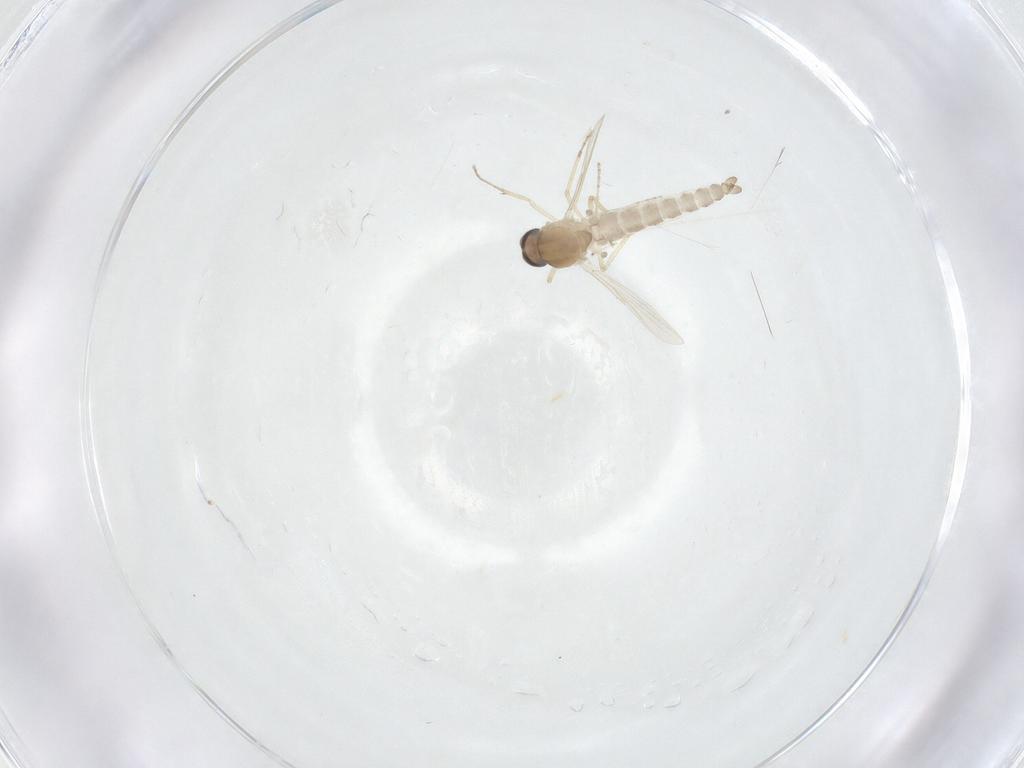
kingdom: Animalia
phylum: Arthropoda
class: Insecta
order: Diptera
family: Ceratopogonidae
